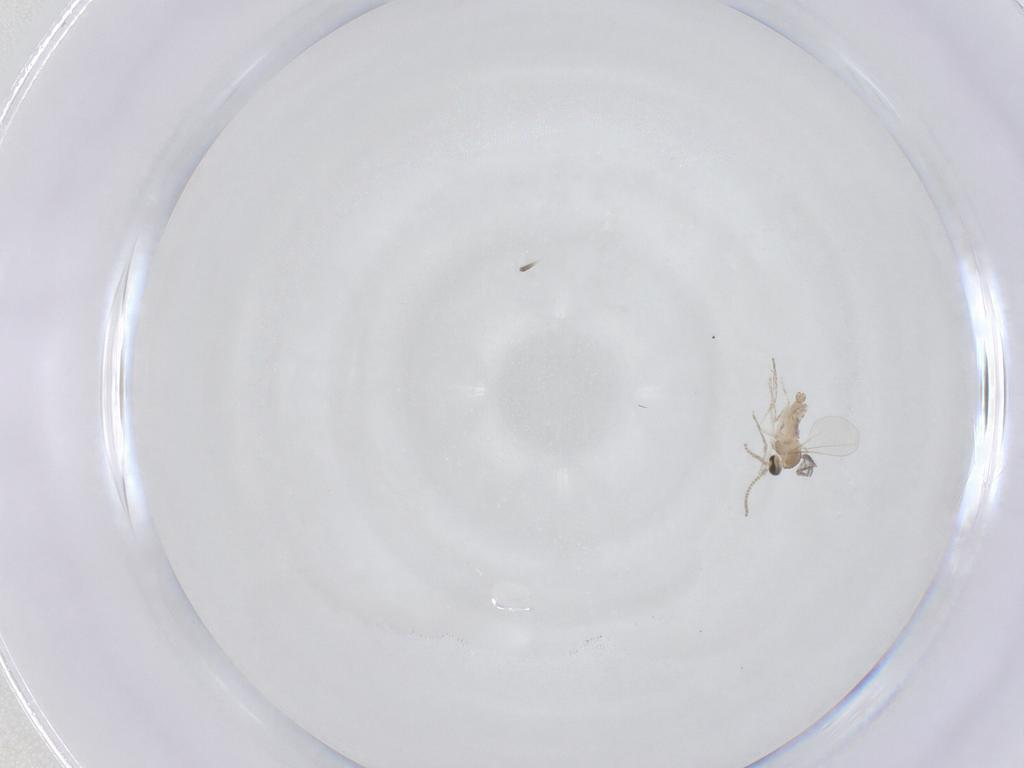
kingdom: Animalia
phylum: Arthropoda
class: Insecta
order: Diptera
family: Cecidomyiidae
